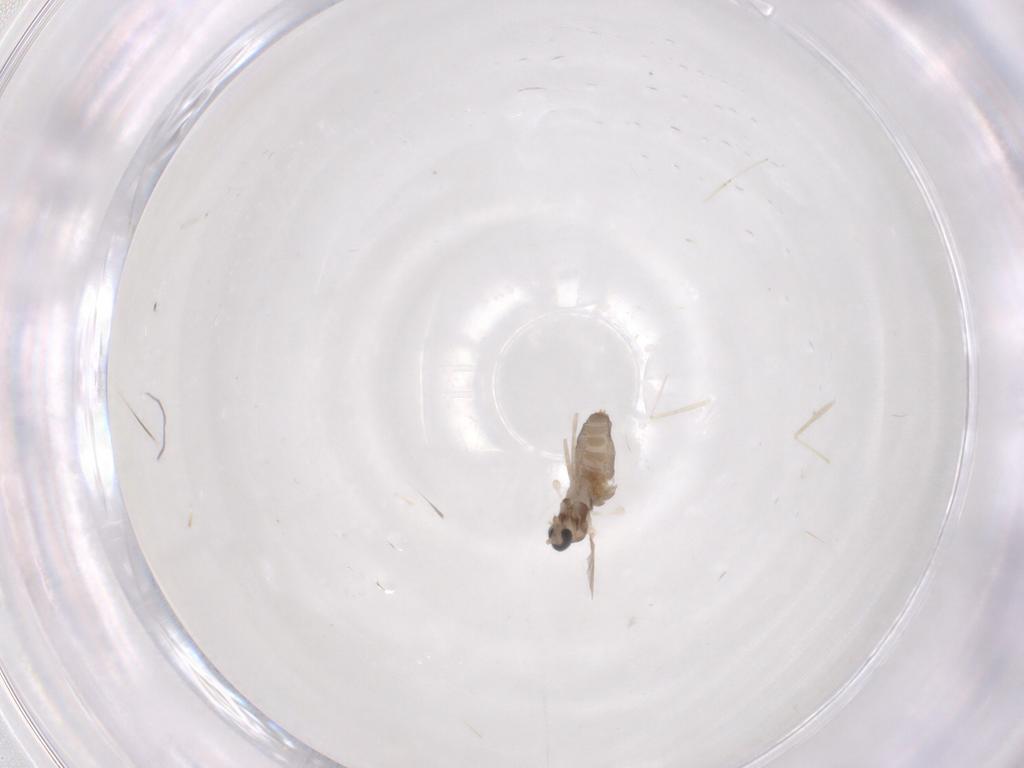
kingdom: Animalia
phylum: Arthropoda
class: Insecta
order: Diptera
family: Cecidomyiidae
